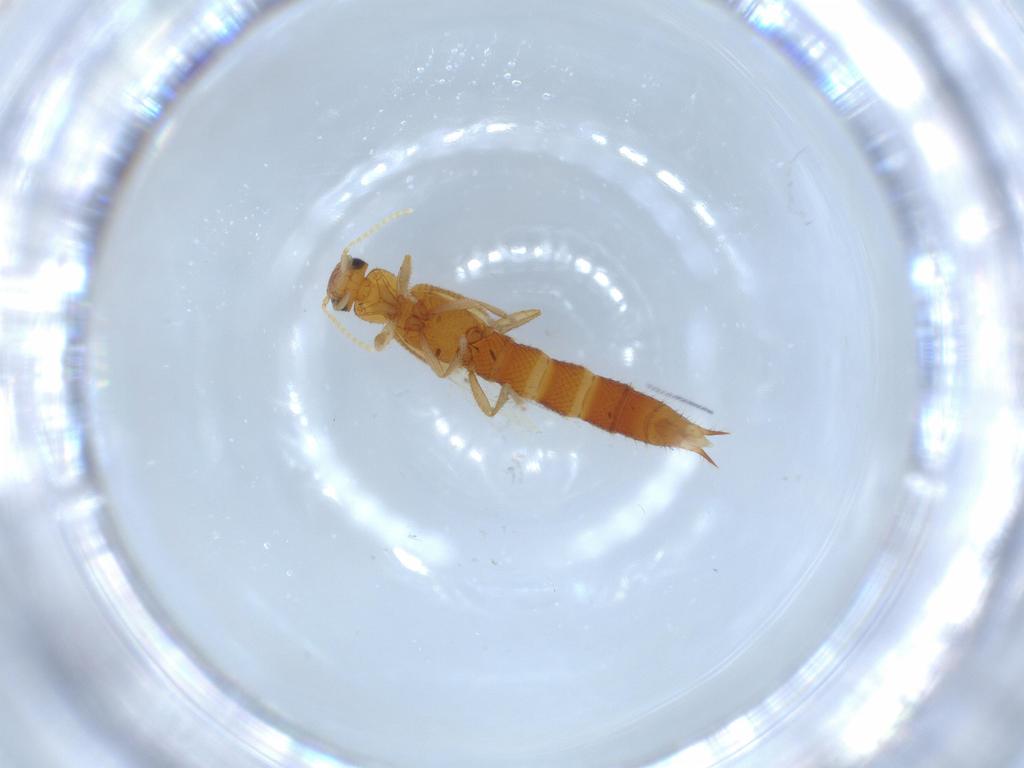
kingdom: Animalia
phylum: Arthropoda
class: Insecta
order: Coleoptera
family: Staphylinidae
